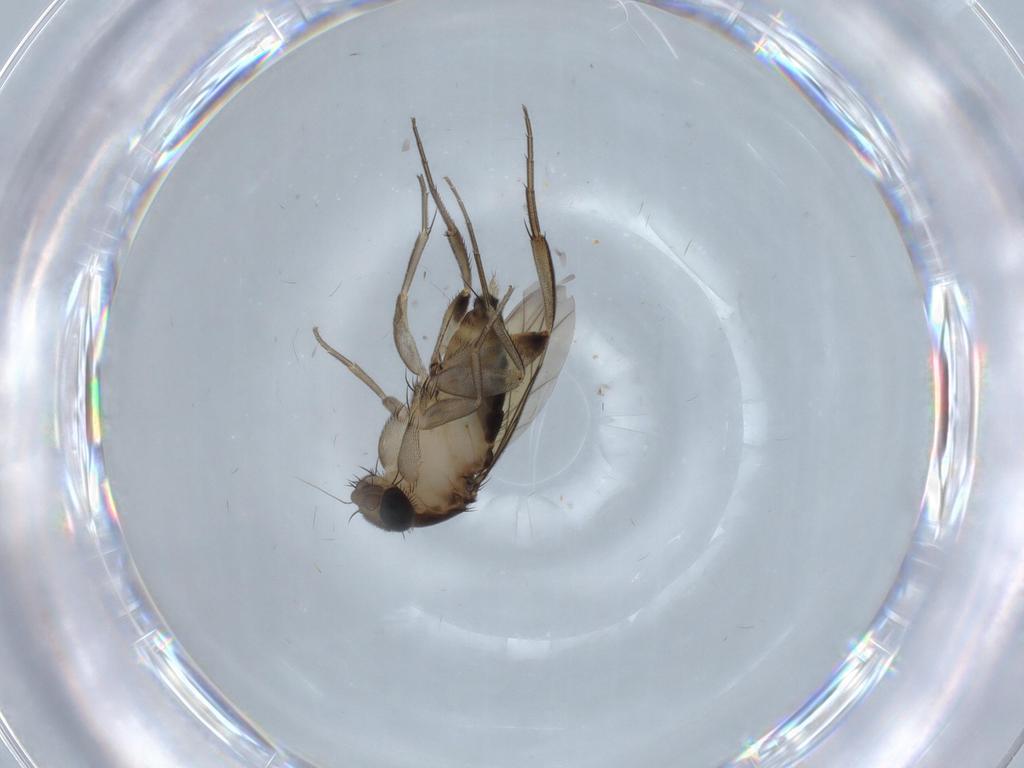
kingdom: Animalia
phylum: Arthropoda
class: Insecta
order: Diptera
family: Phoridae
